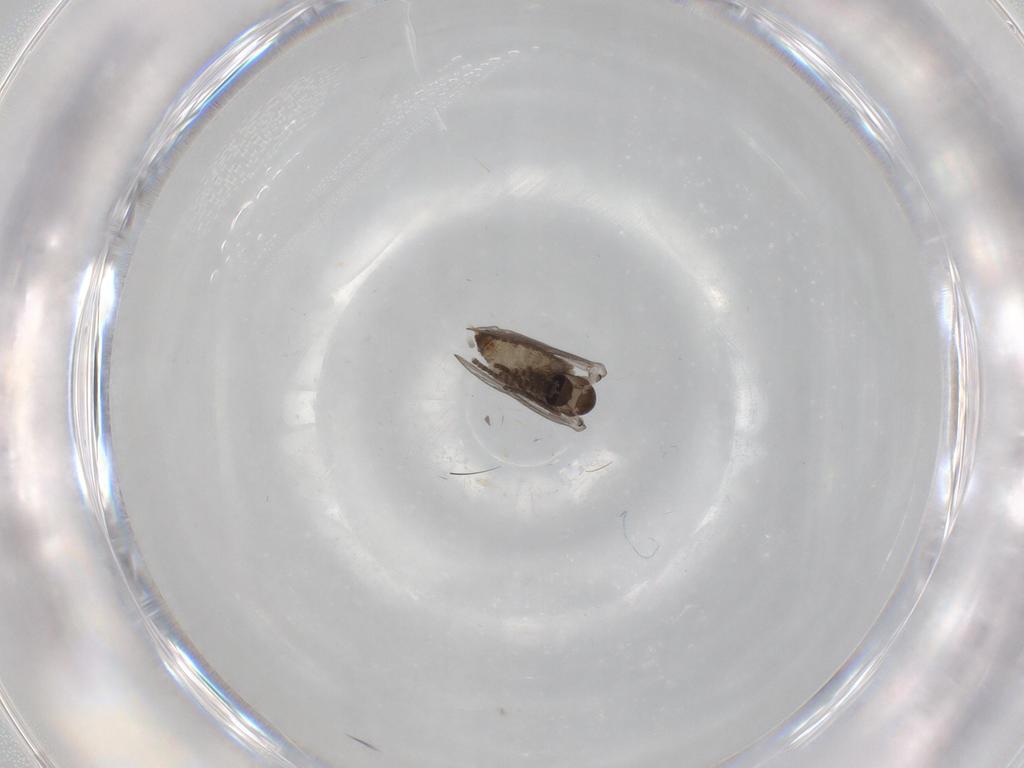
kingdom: Animalia
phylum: Arthropoda
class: Insecta
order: Diptera
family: Psychodidae
